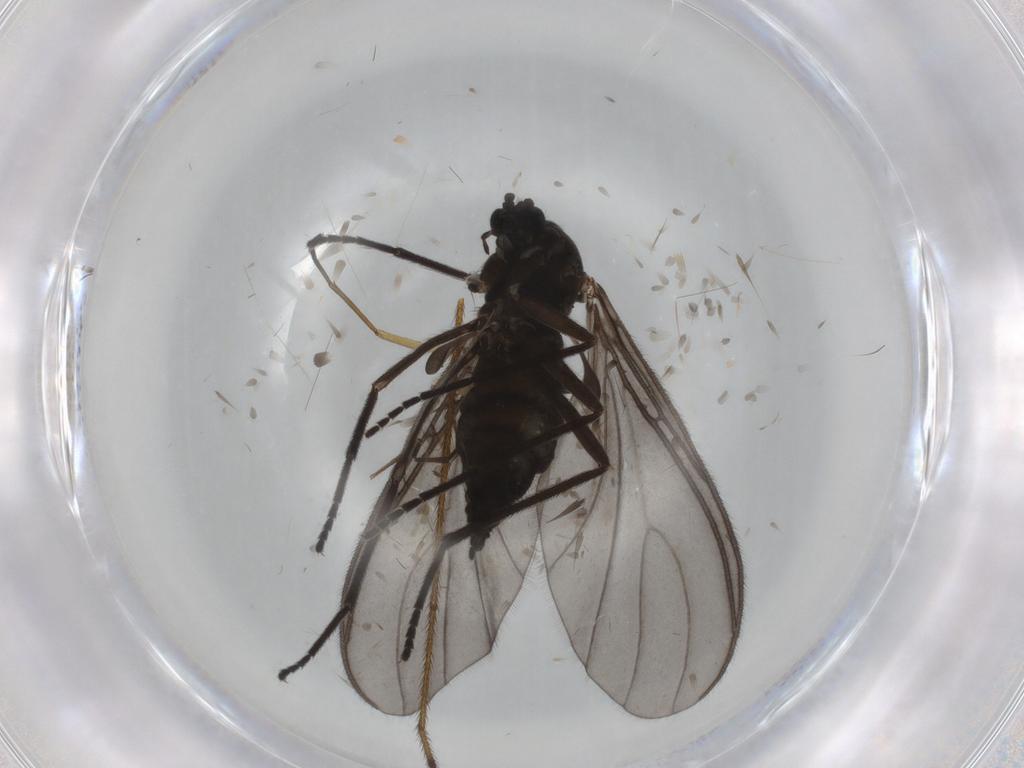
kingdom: Animalia
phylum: Arthropoda
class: Insecta
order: Diptera
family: Sciaridae
